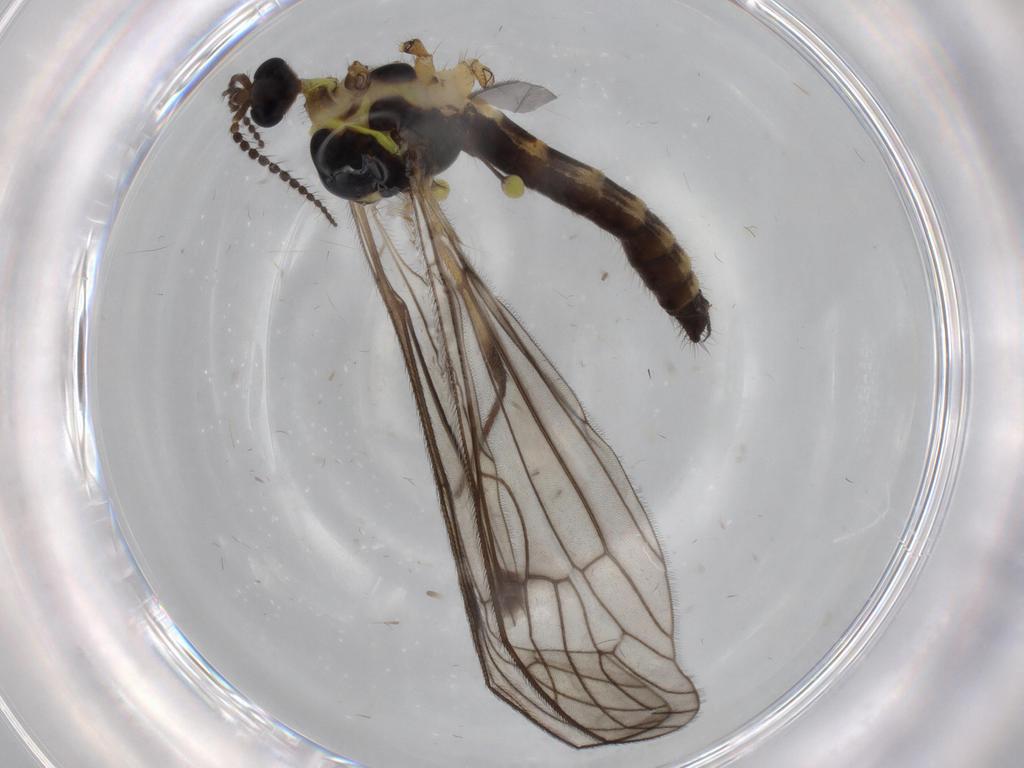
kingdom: Animalia
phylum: Arthropoda
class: Insecta
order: Diptera
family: Limoniidae
